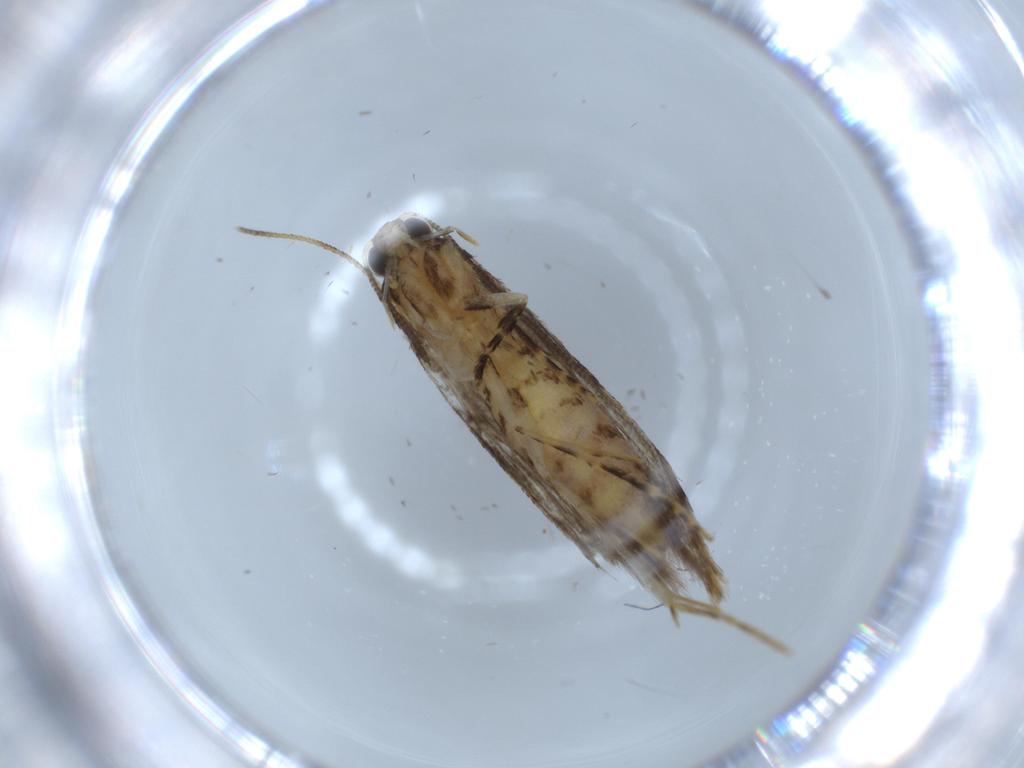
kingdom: Animalia
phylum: Arthropoda
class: Insecta
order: Lepidoptera
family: Tineidae
